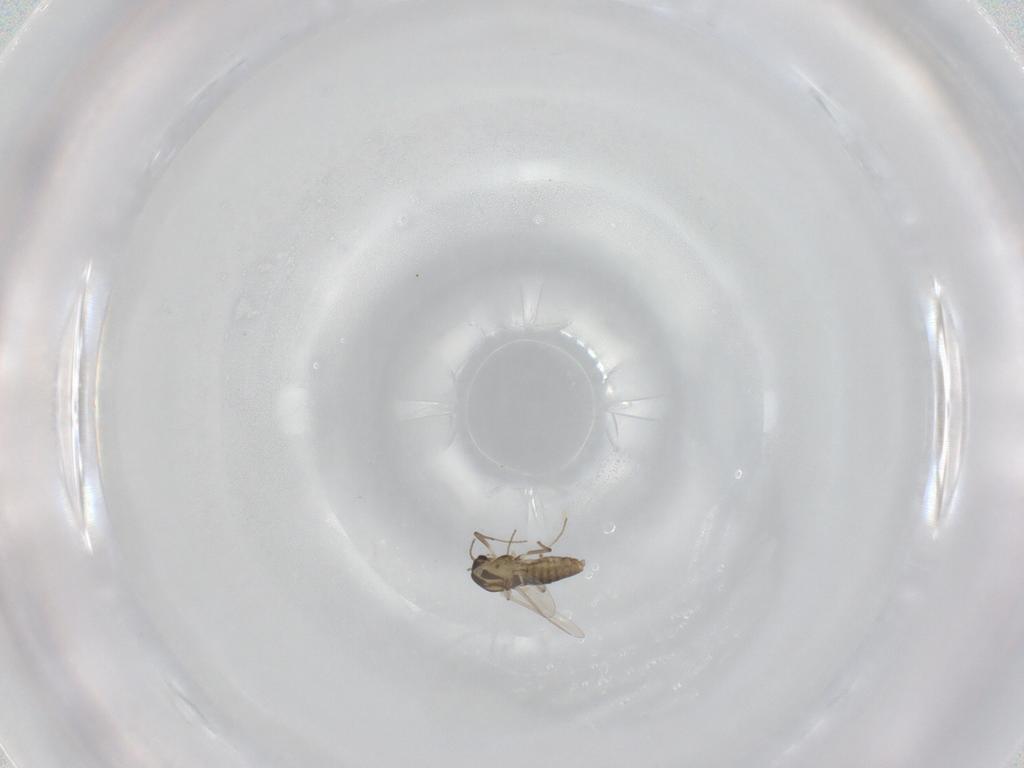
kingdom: Animalia
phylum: Arthropoda
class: Insecta
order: Diptera
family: Chironomidae
